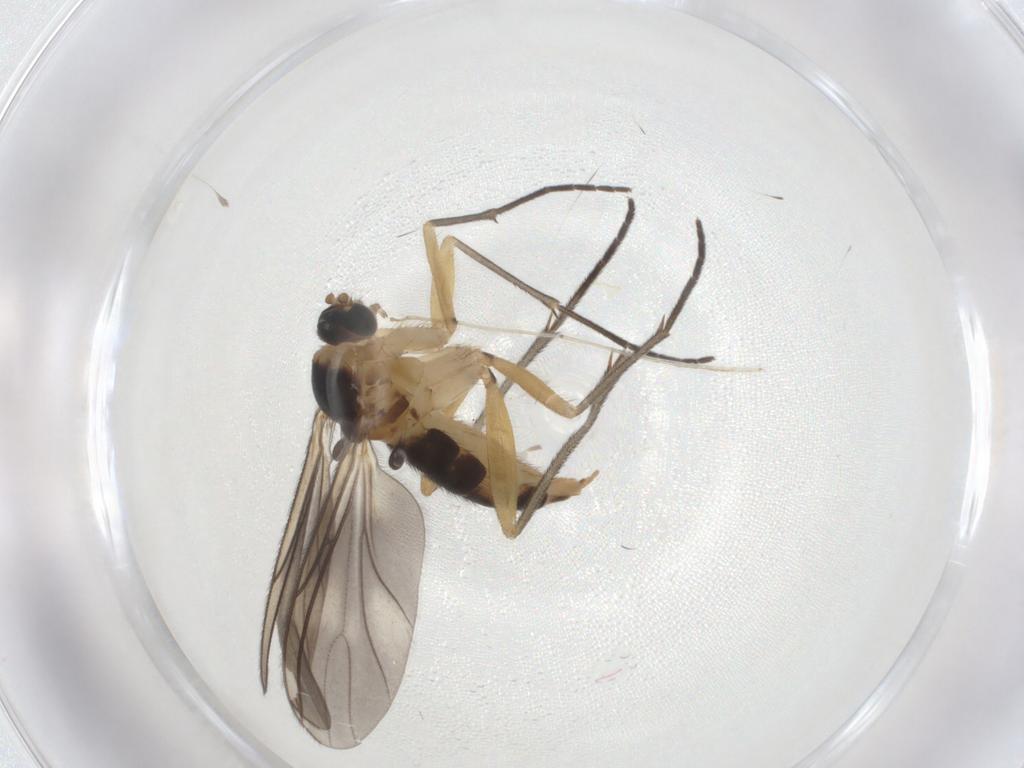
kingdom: Animalia
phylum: Arthropoda
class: Insecta
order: Diptera
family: Sciaridae
